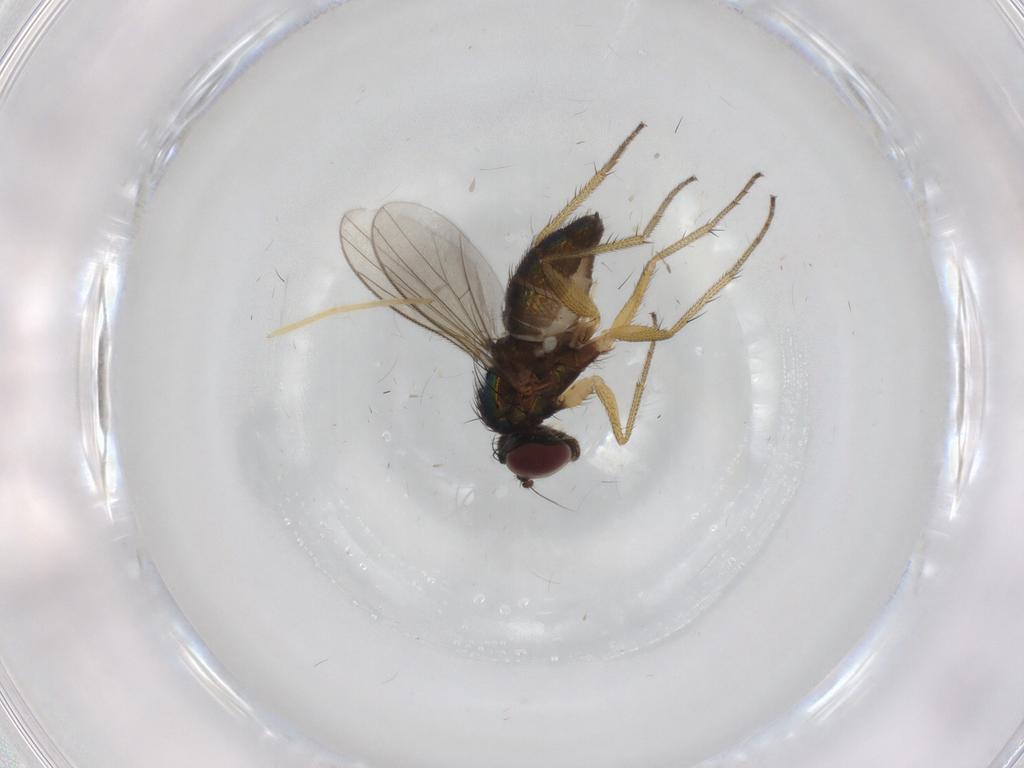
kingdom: Animalia
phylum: Arthropoda
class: Insecta
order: Diptera
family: Dolichopodidae
